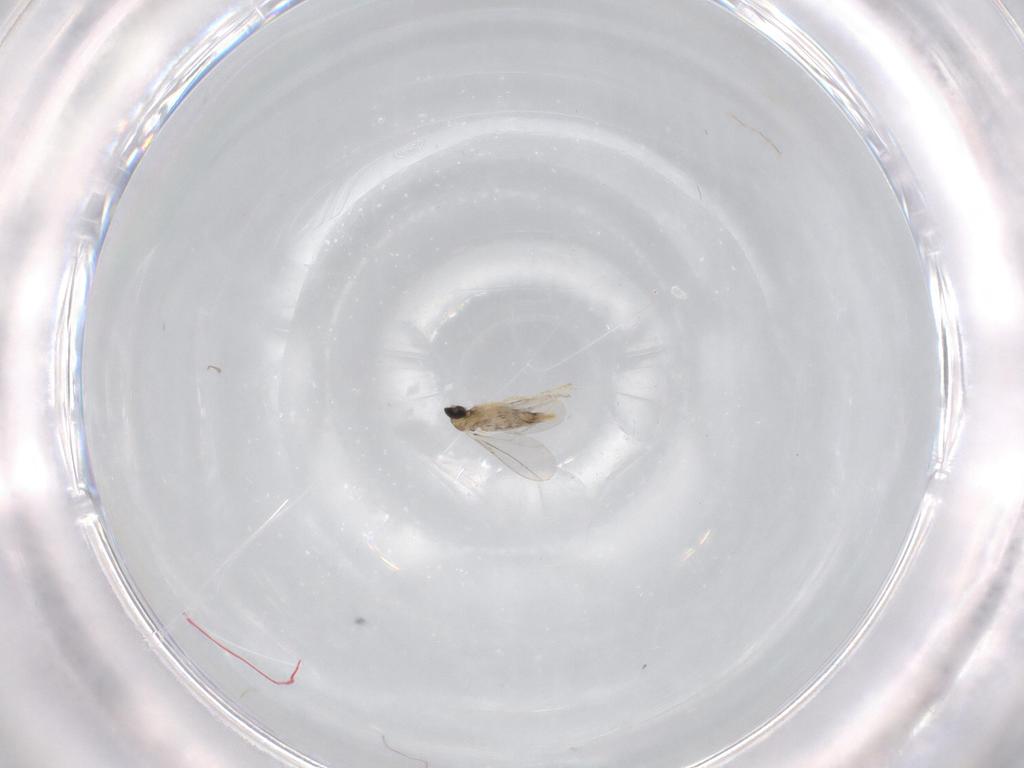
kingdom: Animalia
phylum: Arthropoda
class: Insecta
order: Diptera
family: Cecidomyiidae
